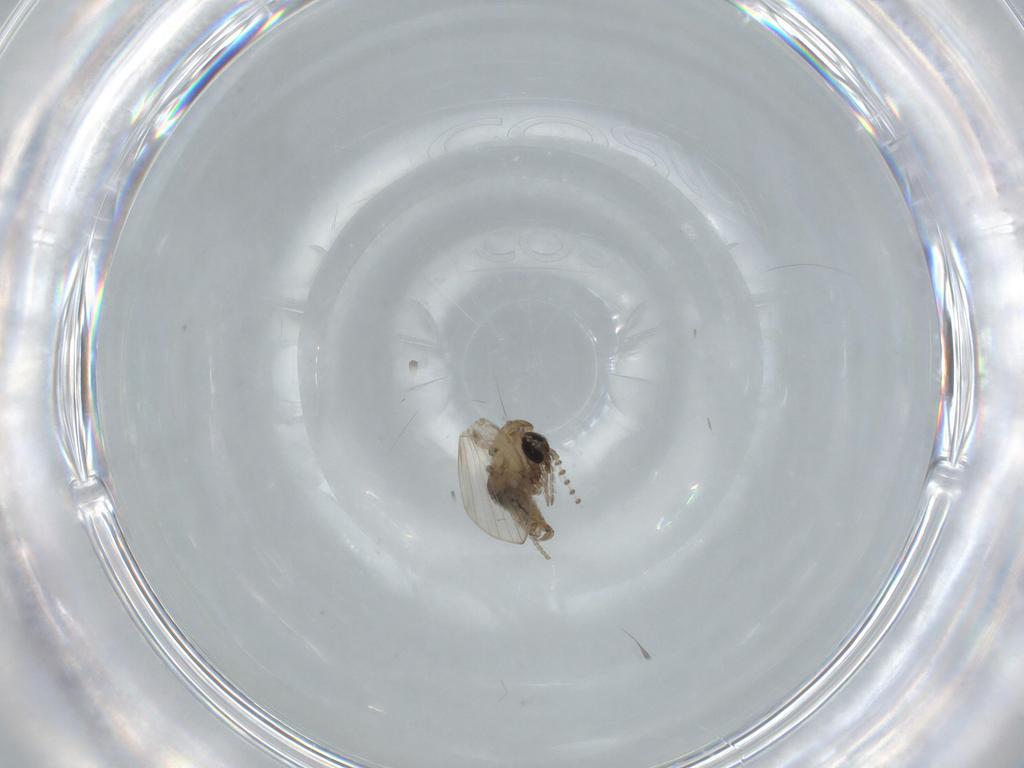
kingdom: Animalia
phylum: Arthropoda
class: Insecta
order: Diptera
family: Psychodidae
